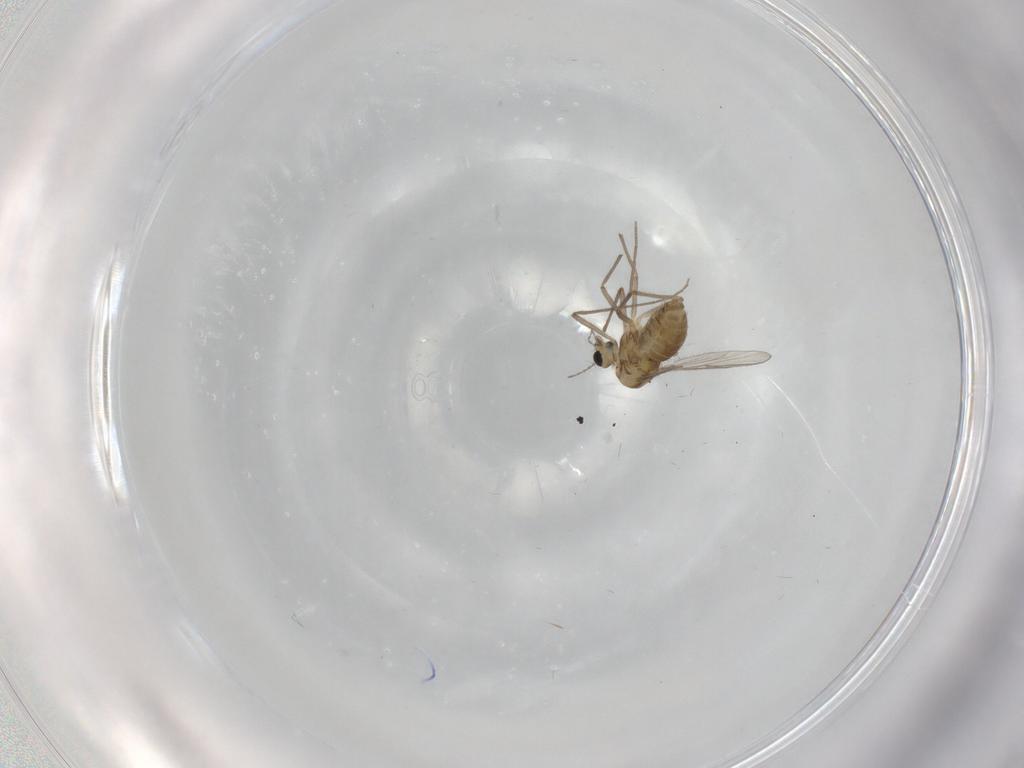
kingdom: Animalia
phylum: Arthropoda
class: Insecta
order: Diptera
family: Chironomidae
